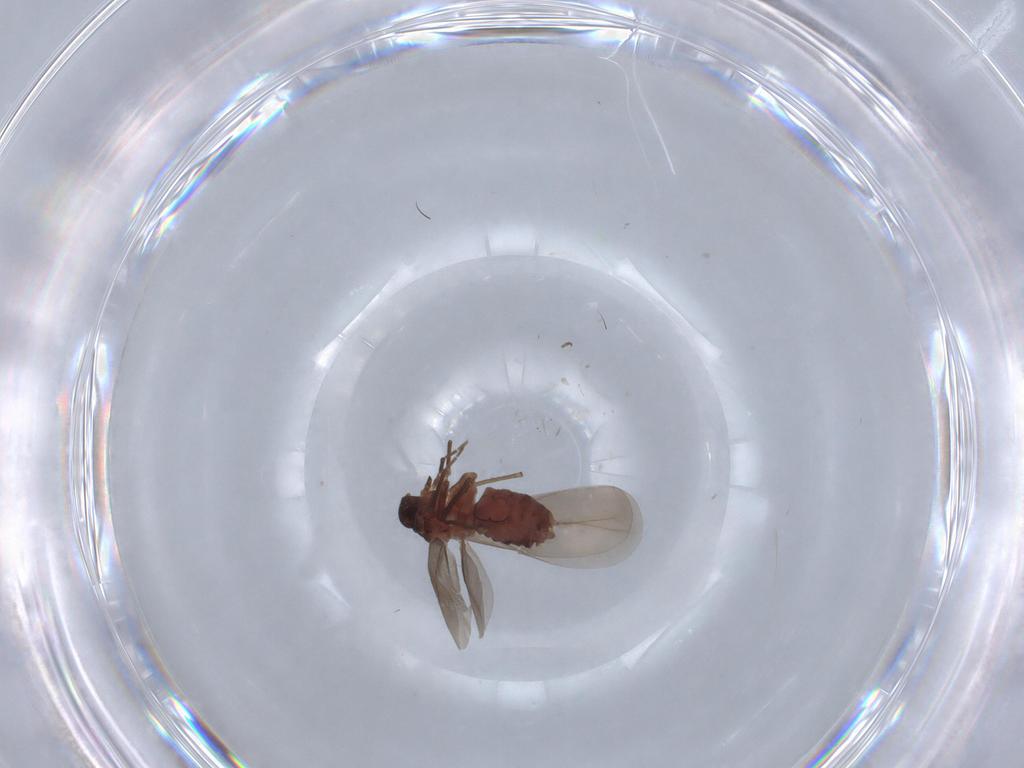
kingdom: Animalia
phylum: Arthropoda
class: Insecta
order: Hemiptera
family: Aleyrodidae
